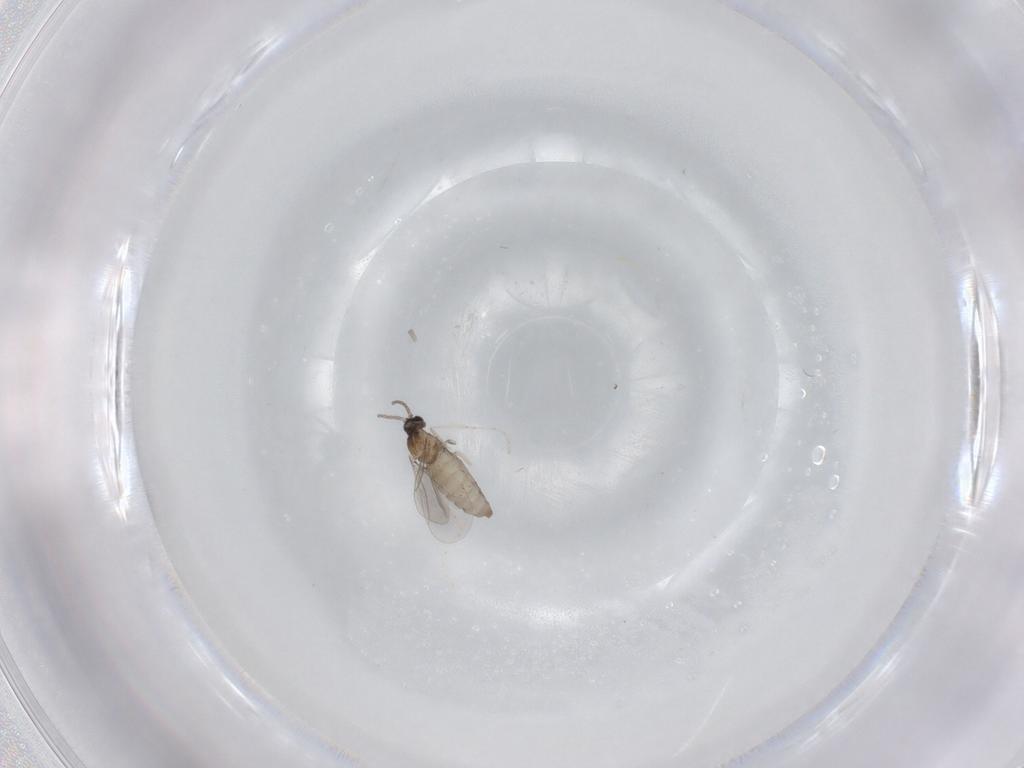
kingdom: Animalia
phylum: Arthropoda
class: Insecta
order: Diptera
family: Cecidomyiidae
